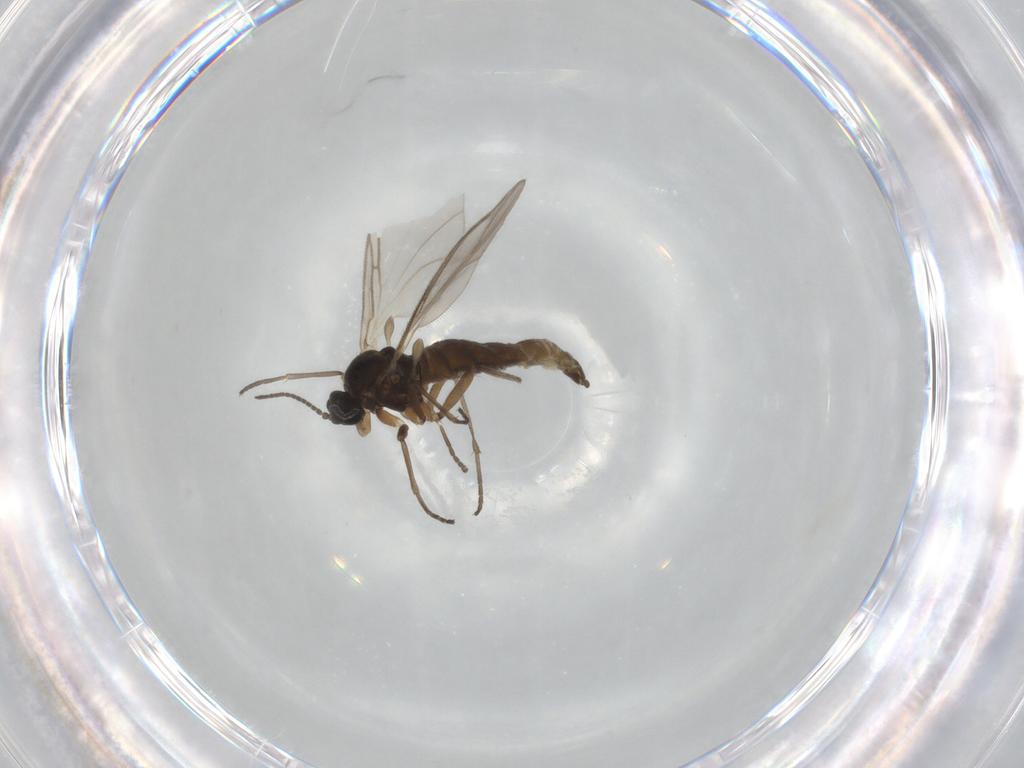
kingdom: Animalia
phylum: Arthropoda
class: Insecta
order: Diptera
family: Sciaridae
